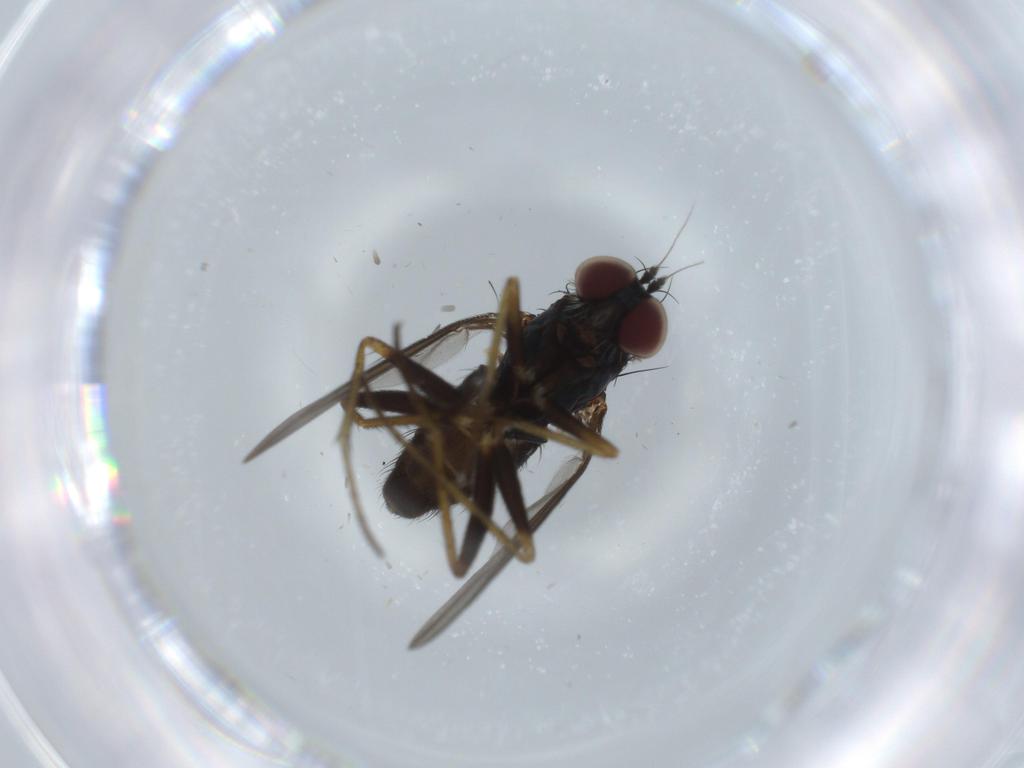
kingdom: Animalia
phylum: Arthropoda
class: Insecta
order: Diptera
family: Dolichopodidae
